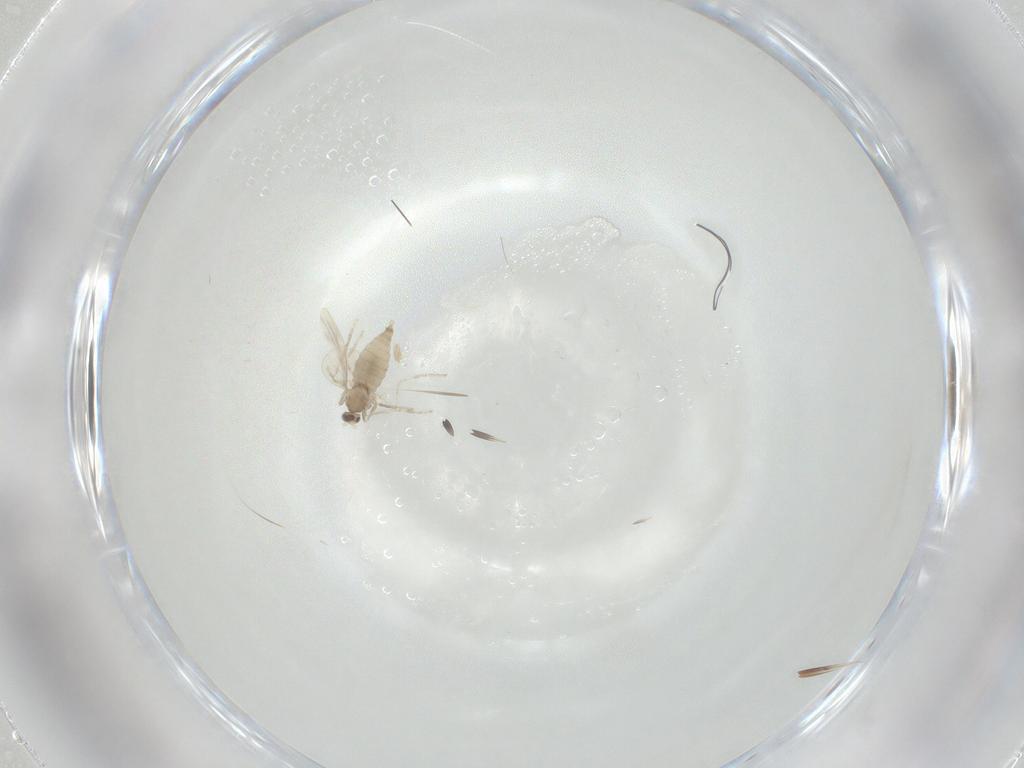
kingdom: Animalia
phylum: Arthropoda
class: Insecta
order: Diptera
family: Cecidomyiidae
